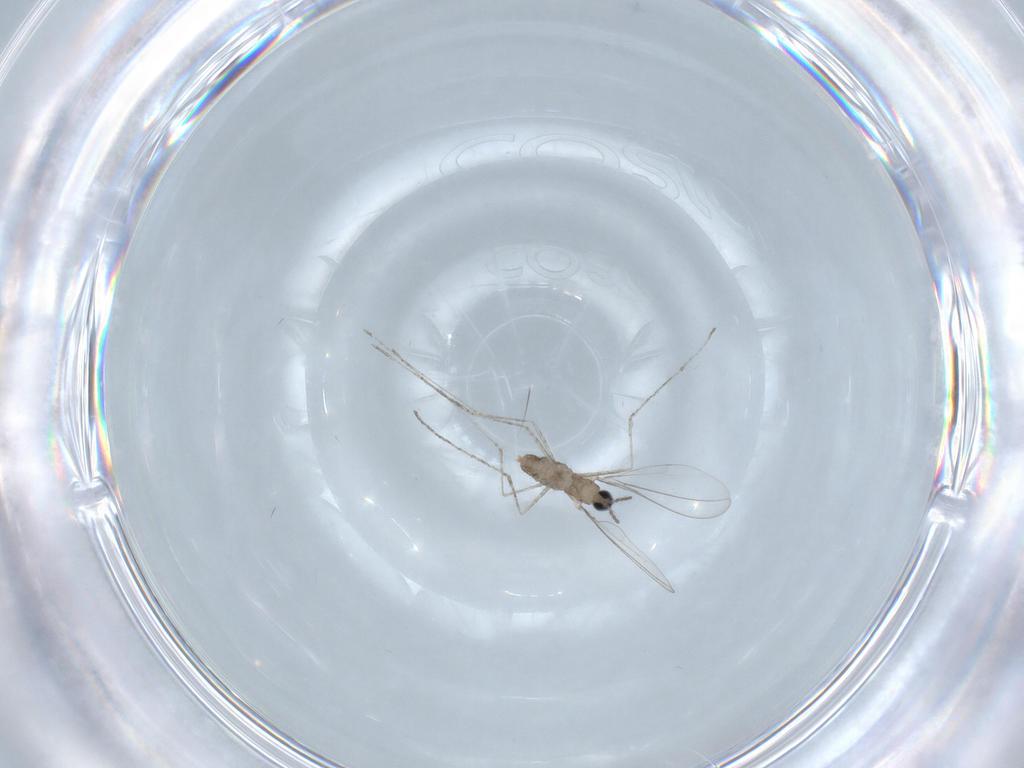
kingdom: Animalia
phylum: Arthropoda
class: Insecta
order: Diptera
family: Cecidomyiidae
